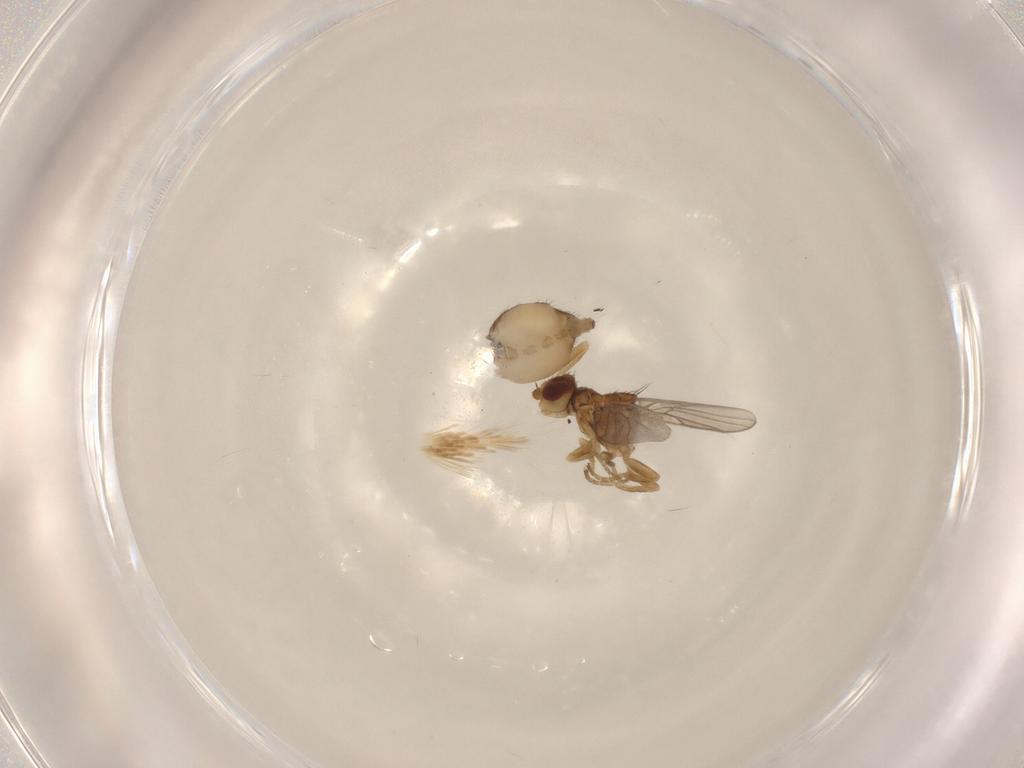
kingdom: Animalia
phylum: Arthropoda
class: Insecta
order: Diptera
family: Chloropidae
